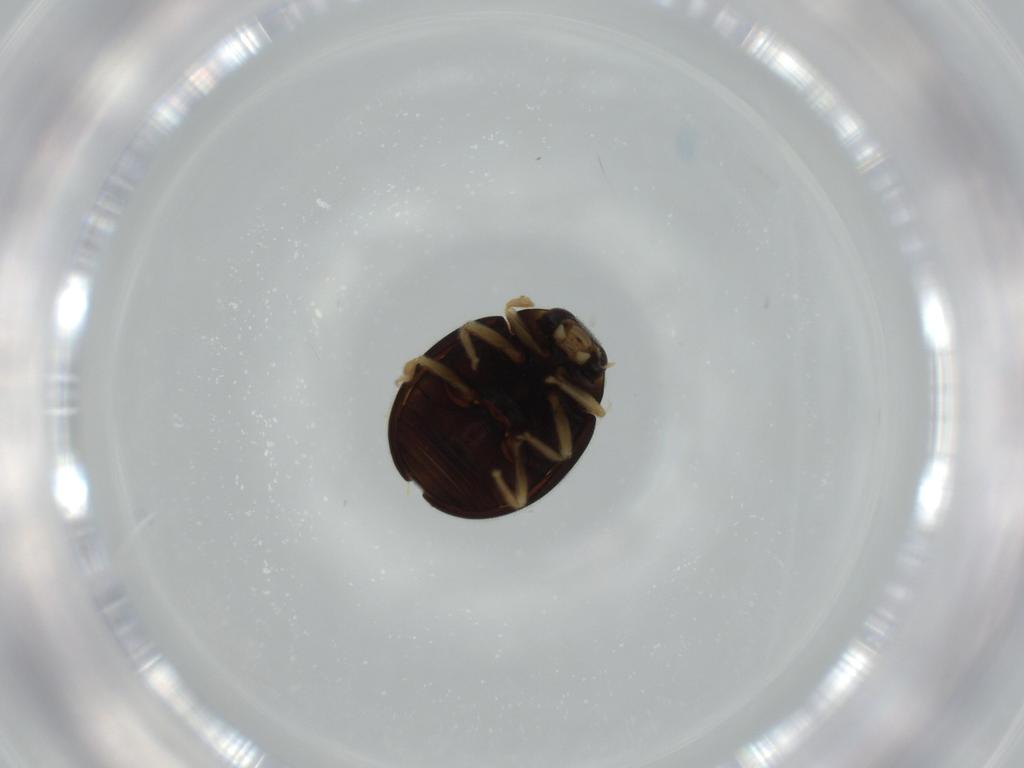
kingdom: Animalia
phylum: Arthropoda
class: Insecta
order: Coleoptera
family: Coccinellidae
